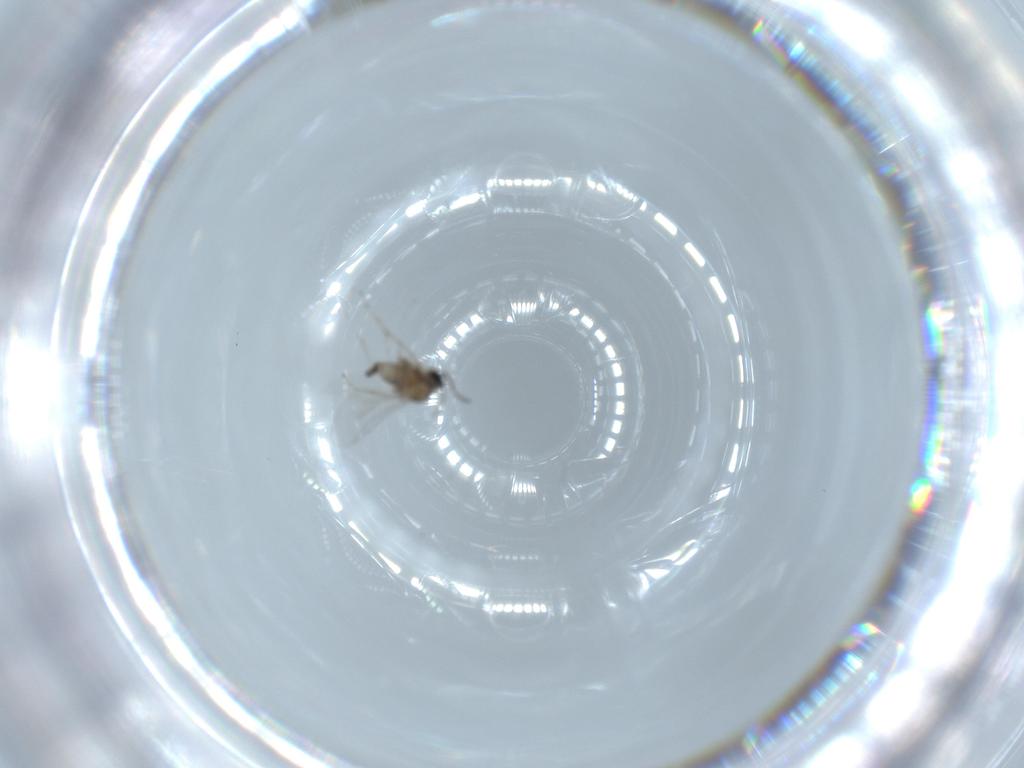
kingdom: Animalia
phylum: Arthropoda
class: Insecta
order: Diptera
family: Cecidomyiidae
